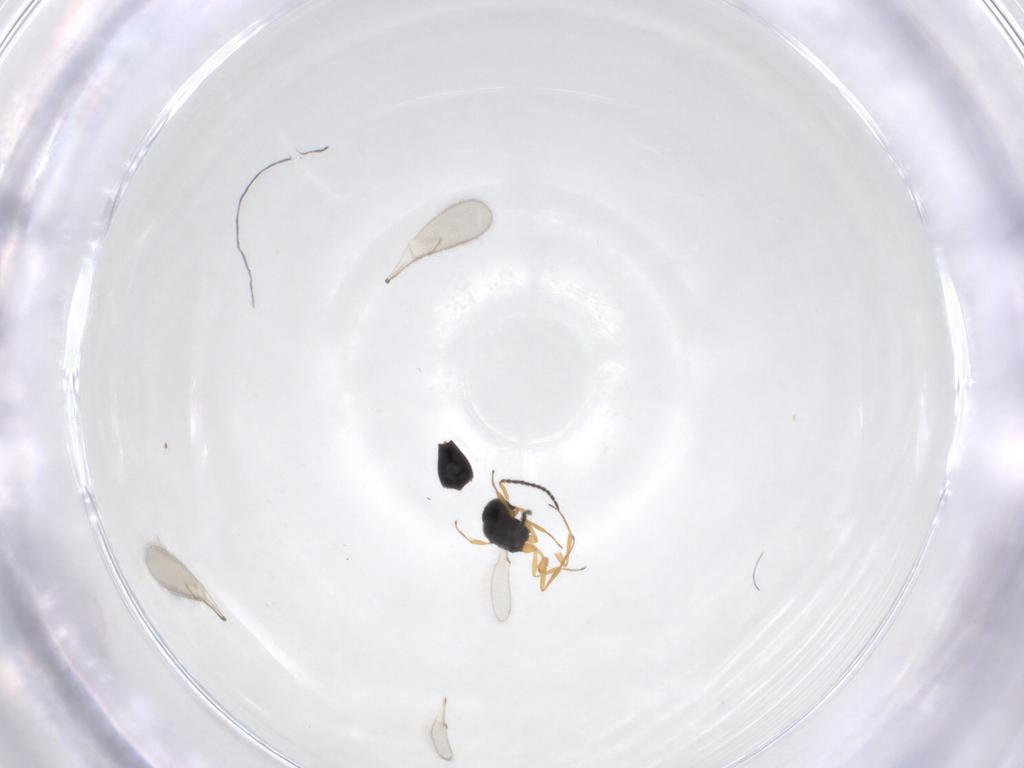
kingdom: Animalia
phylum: Arthropoda
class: Insecta
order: Hymenoptera
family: Scelionidae
